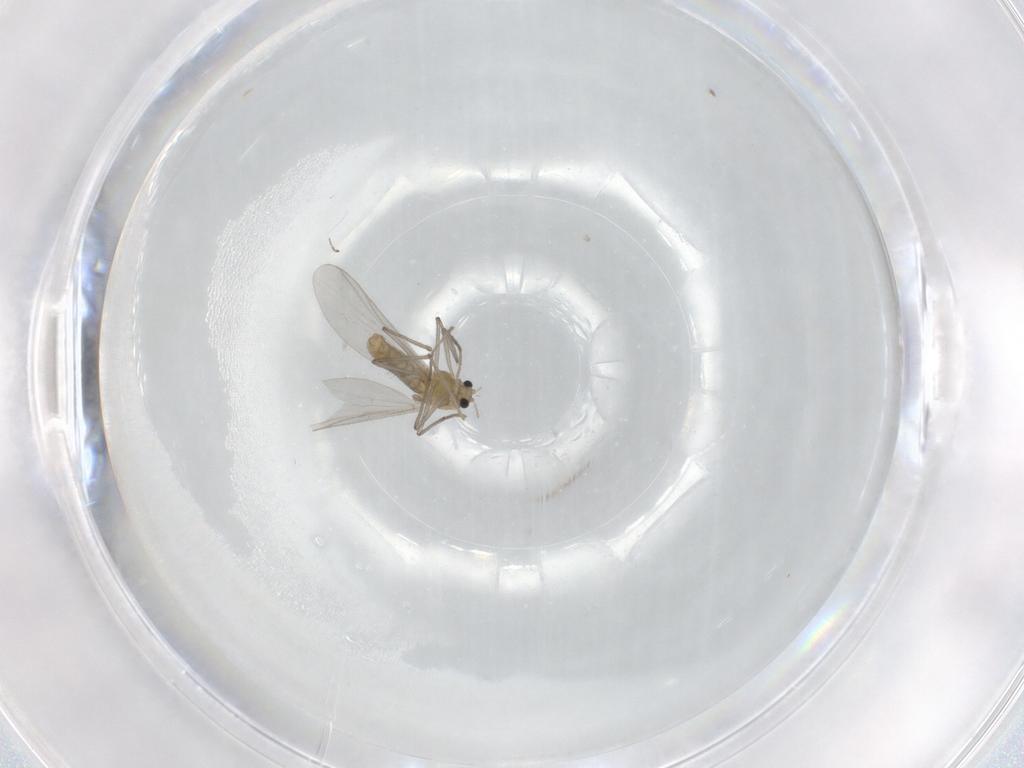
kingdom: Animalia
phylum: Arthropoda
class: Insecta
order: Diptera
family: Chironomidae
